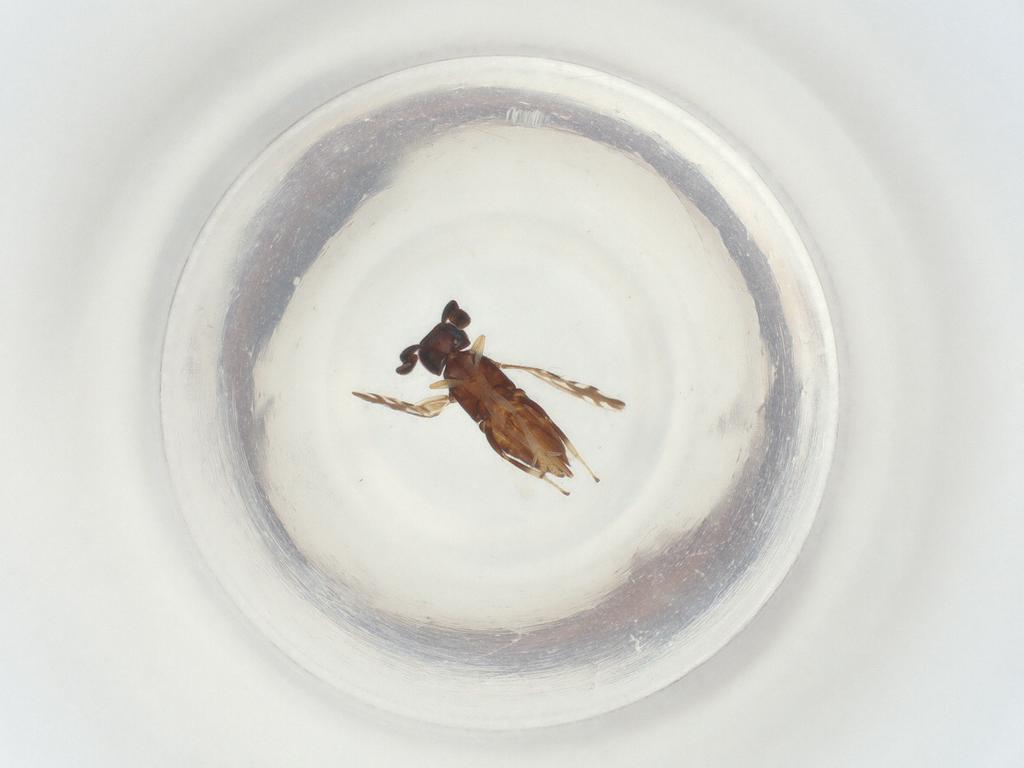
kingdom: Animalia
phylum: Arthropoda
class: Insecta
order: Hymenoptera
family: Encyrtidae
